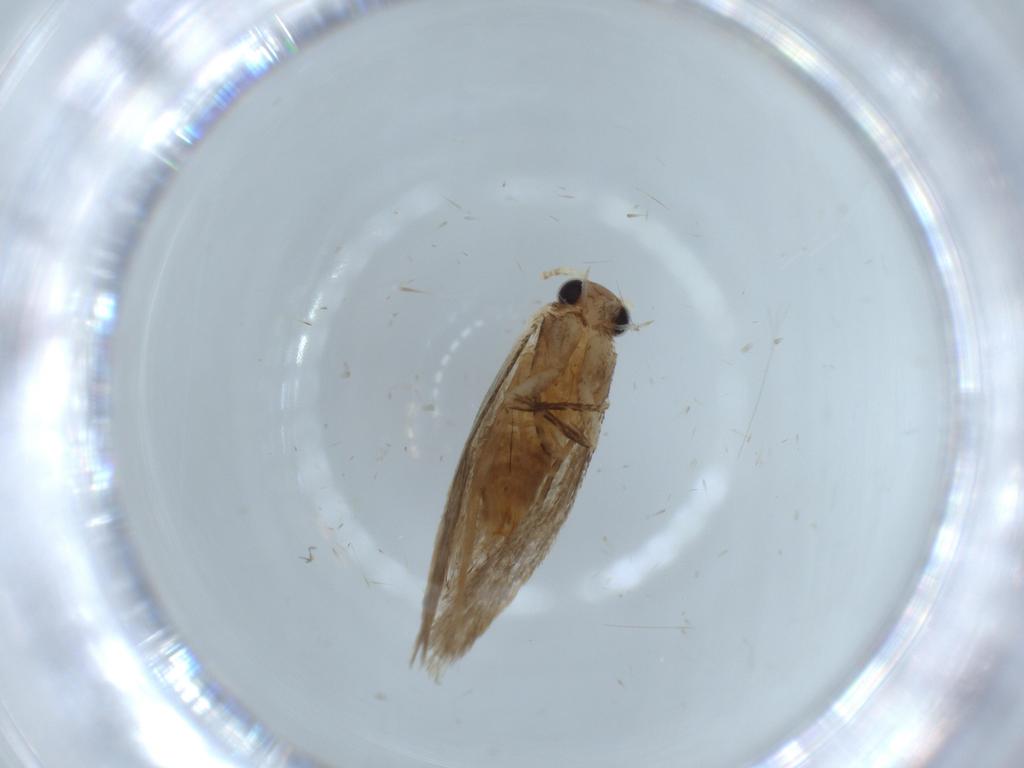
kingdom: Animalia
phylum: Arthropoda
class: Insecta
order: Lepidoptera
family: Tineidae
